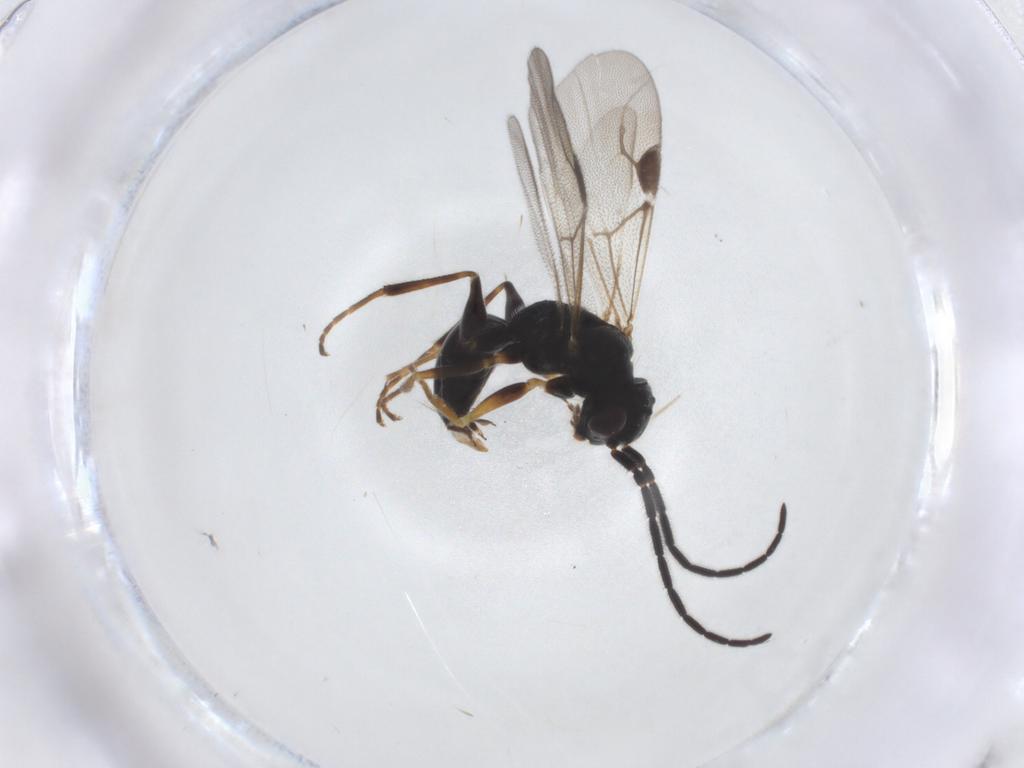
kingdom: Animalia
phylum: Arthropoda
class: Insecta
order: Hymenoptera
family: Dryinidae
